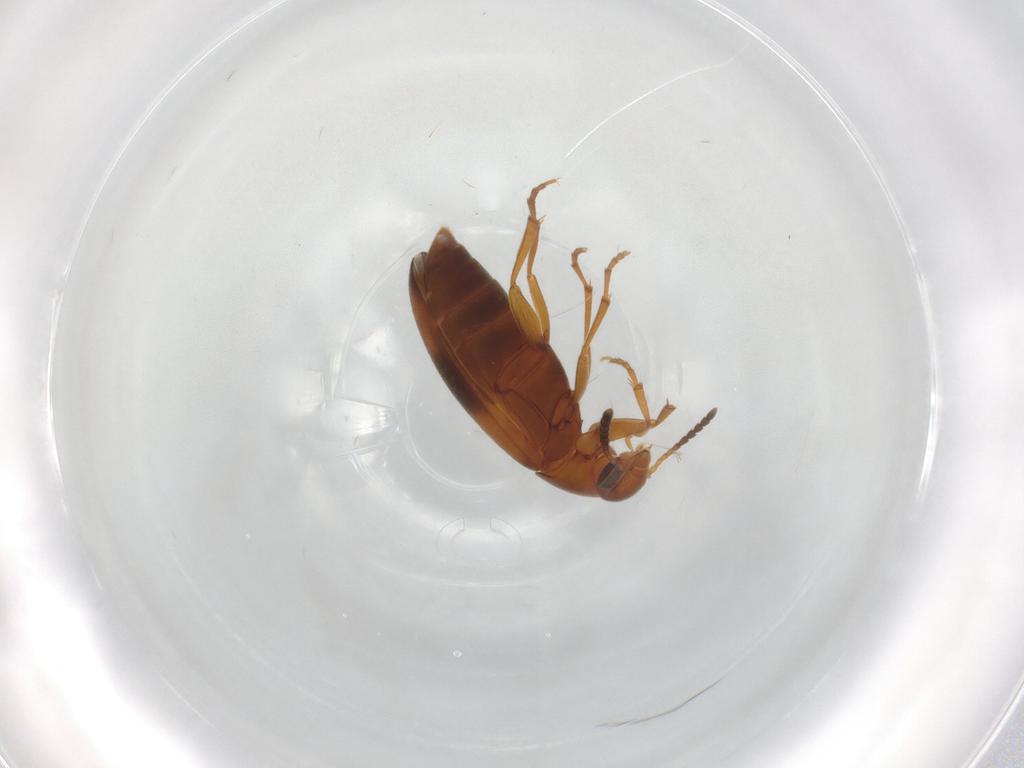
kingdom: Animalia
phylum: Arthropoda
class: Insecta
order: Coleoptera
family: Scraptiidae
